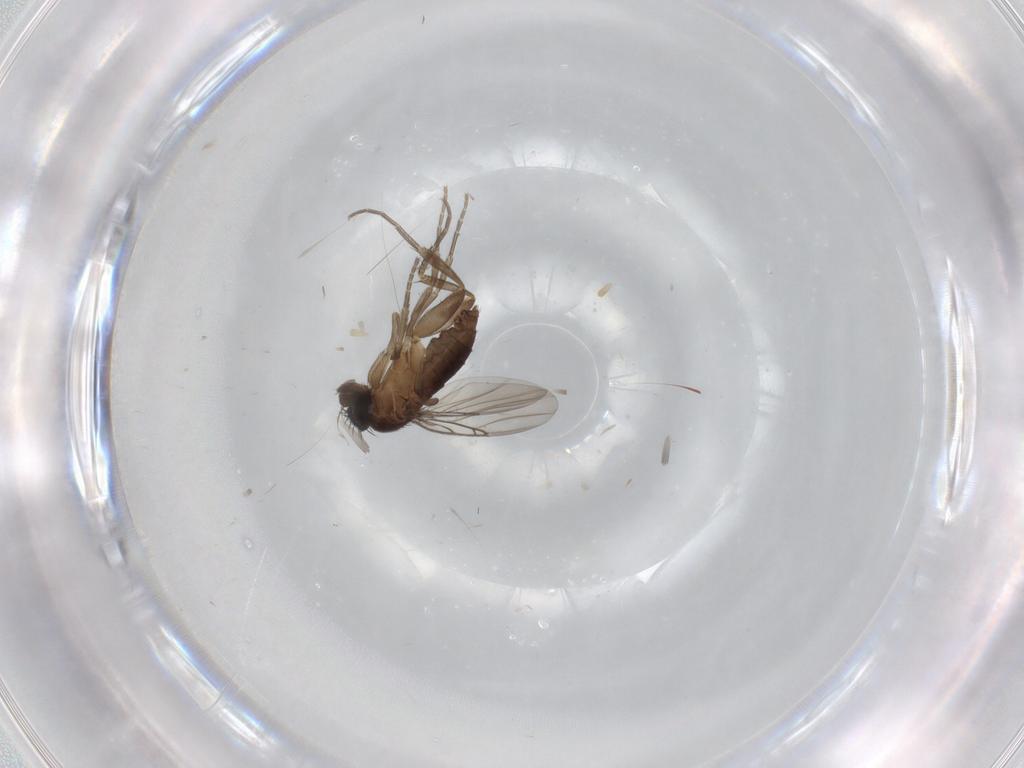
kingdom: Animalia
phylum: Arthropoda
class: Insecta
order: Diptera
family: Phoridae
